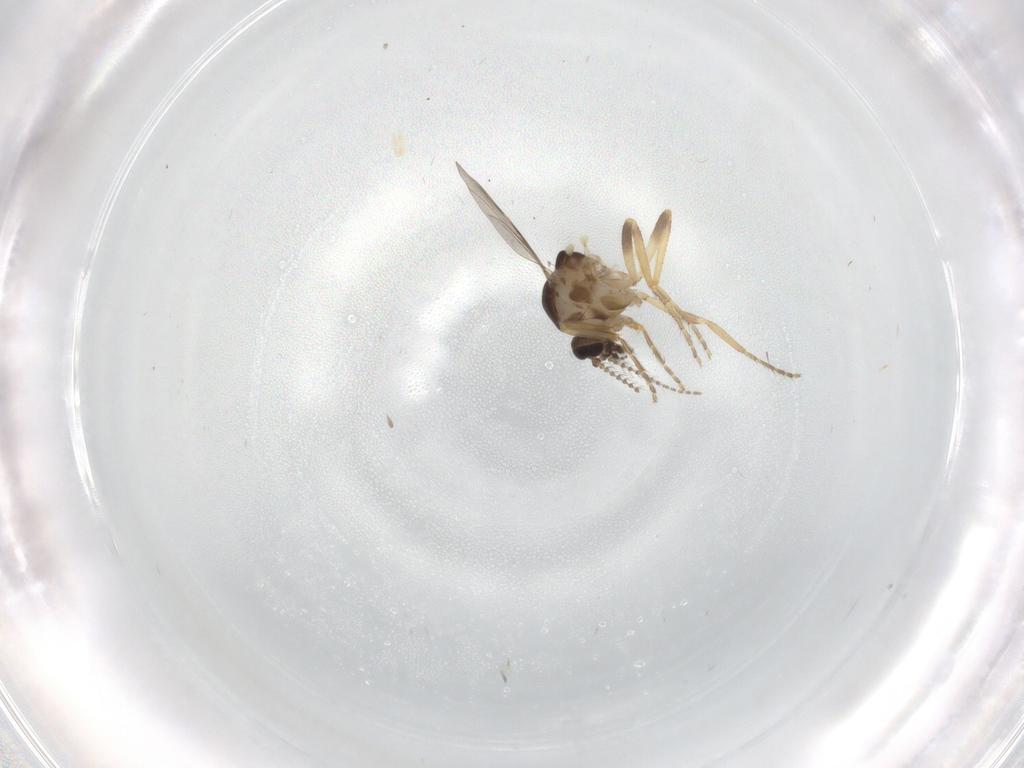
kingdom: Animalia
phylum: Arthropoda
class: Insecta
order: Diptera
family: Ceratopogonidae
